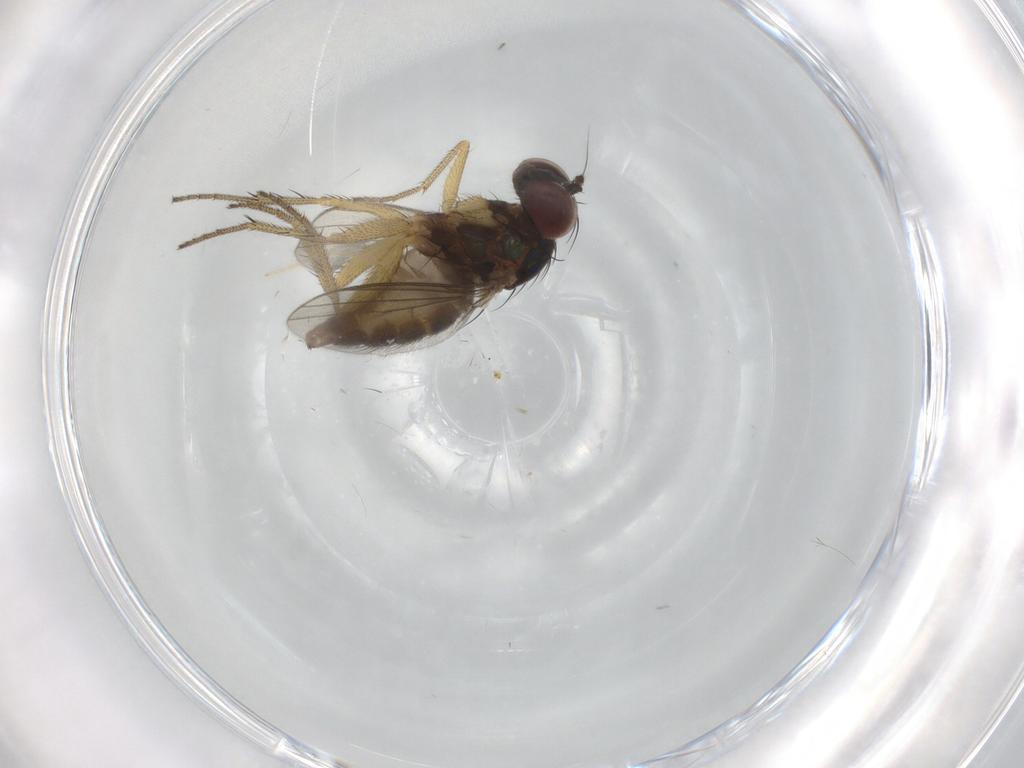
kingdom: Animalia
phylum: Arthropoda
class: Insecta
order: Diptera
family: Dolichopodidae
